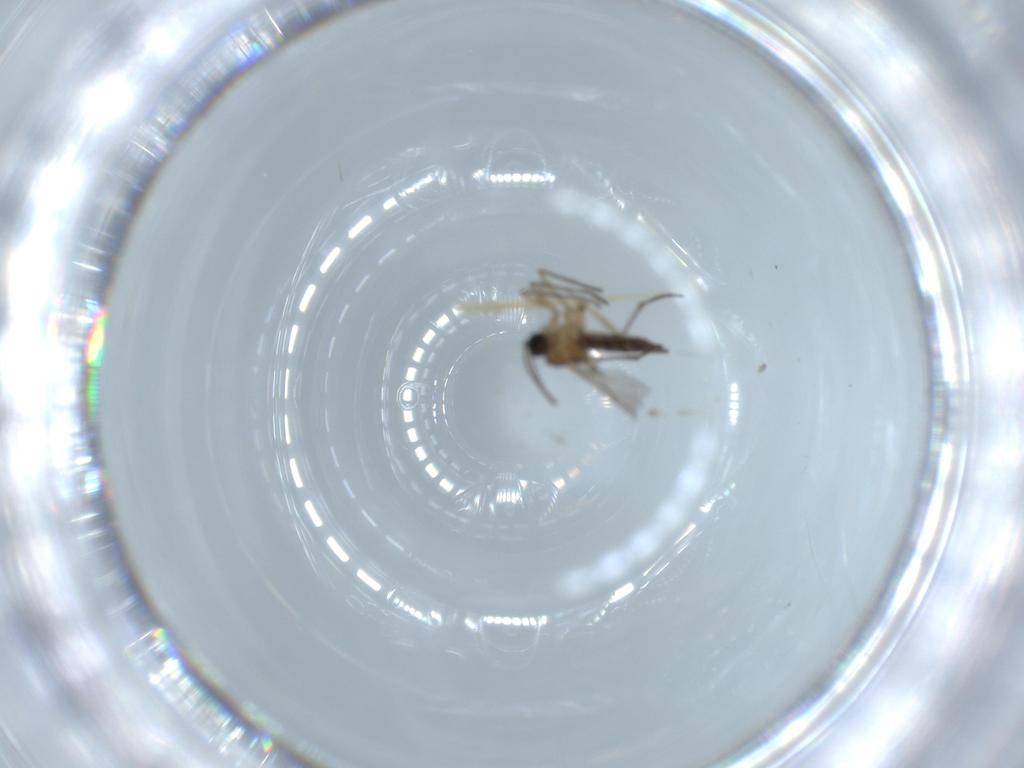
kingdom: Animalia
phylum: Arthropoda
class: Insecta
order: Diptera
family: Sciaridae
